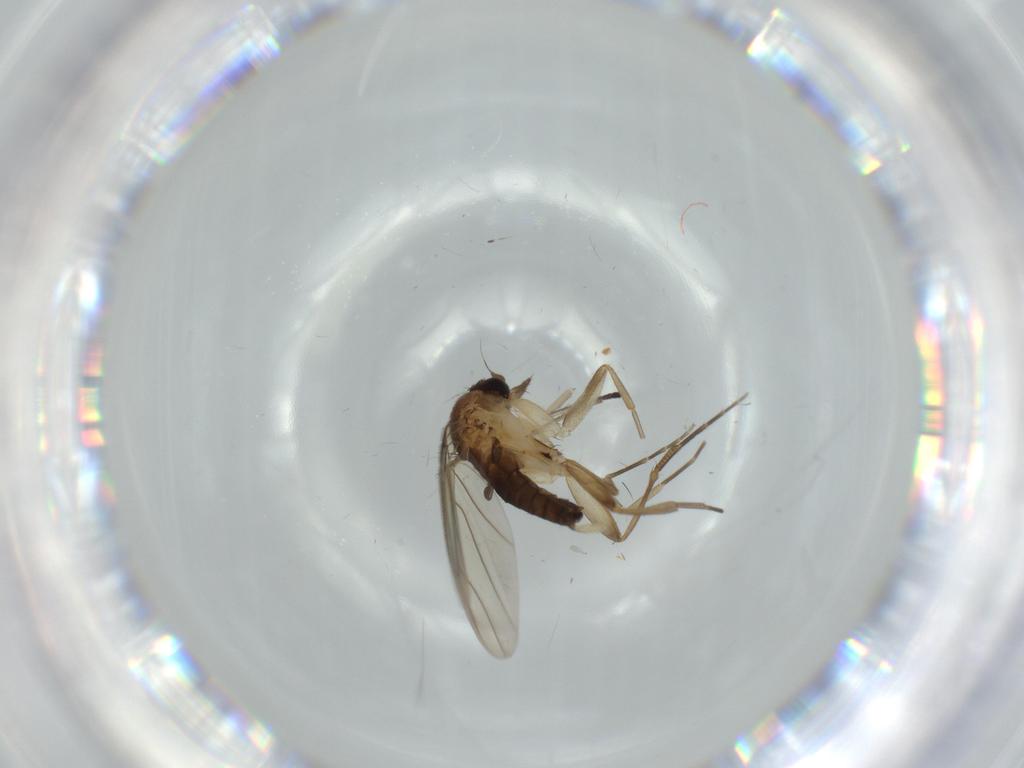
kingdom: Animalia
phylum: Arthropoda
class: Insecta
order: Diptera
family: Phoridae
